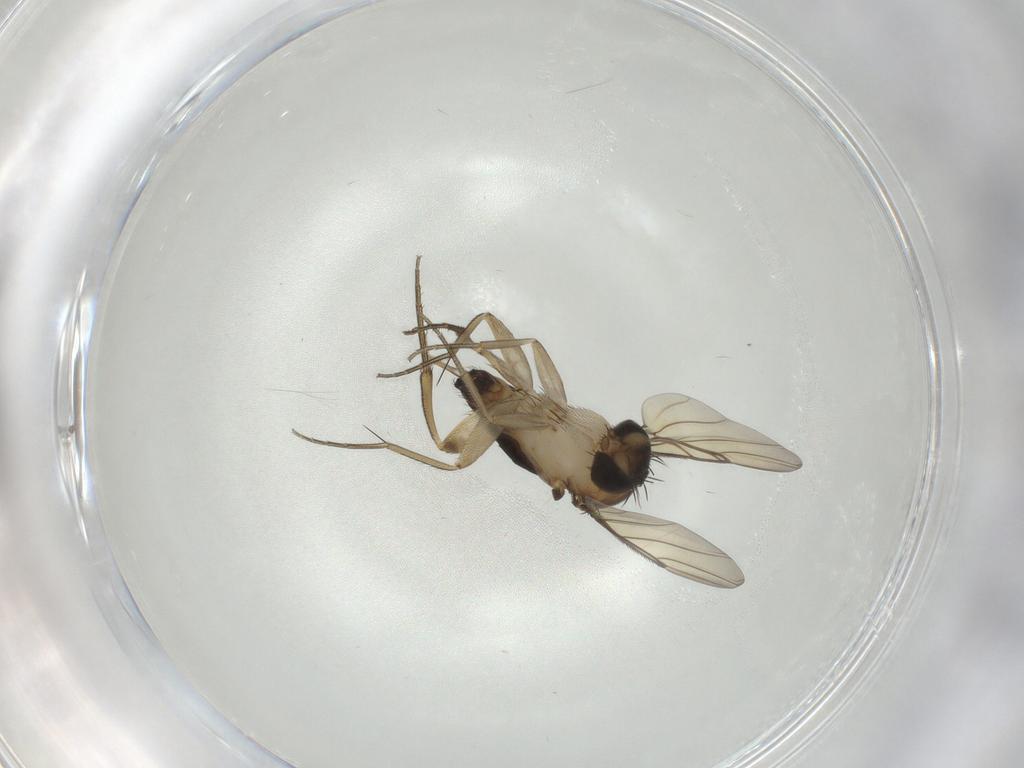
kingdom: Animalia
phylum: Arthropoda
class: Insecta
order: Diptera
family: Phoridae
